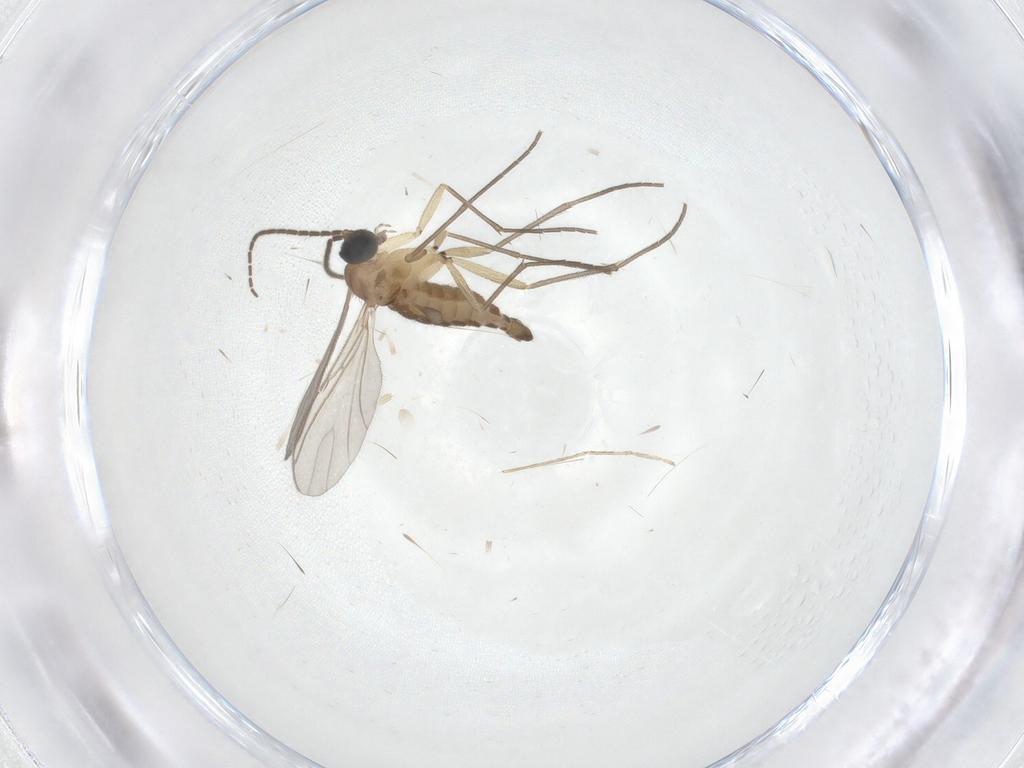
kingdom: Animalia
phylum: Arthropoda
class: Insecta
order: Diptera
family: Sciaridae
